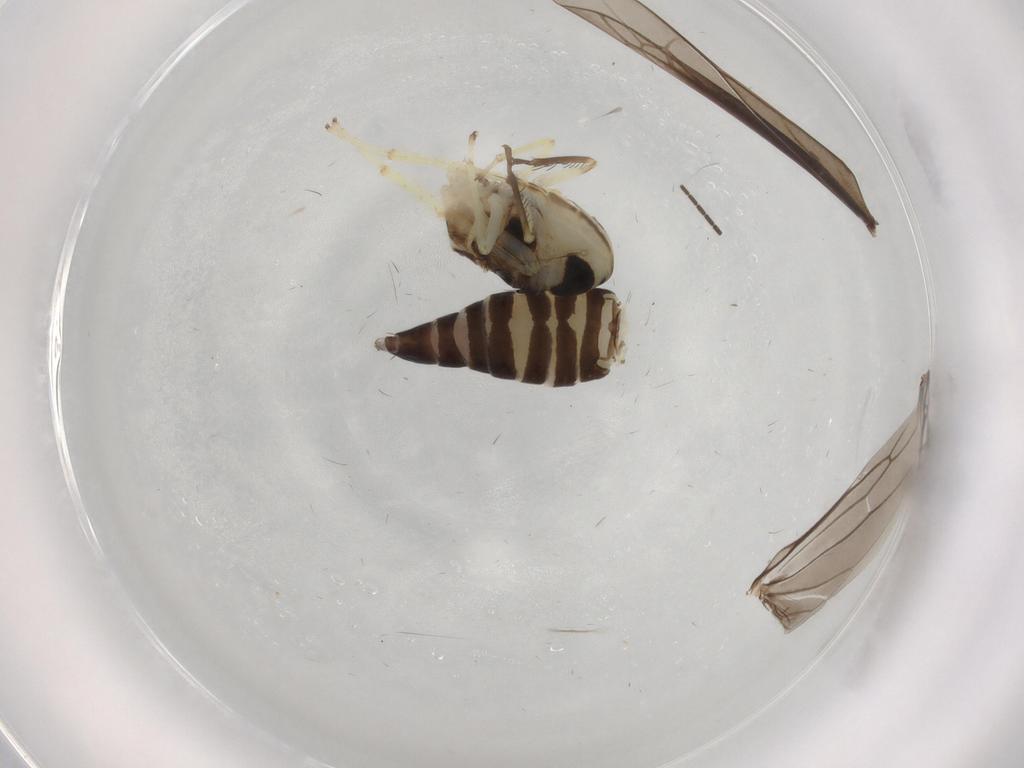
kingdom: Animalia
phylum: Arthropoda
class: Insecta
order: Hemiptera
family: Cicadellidae
